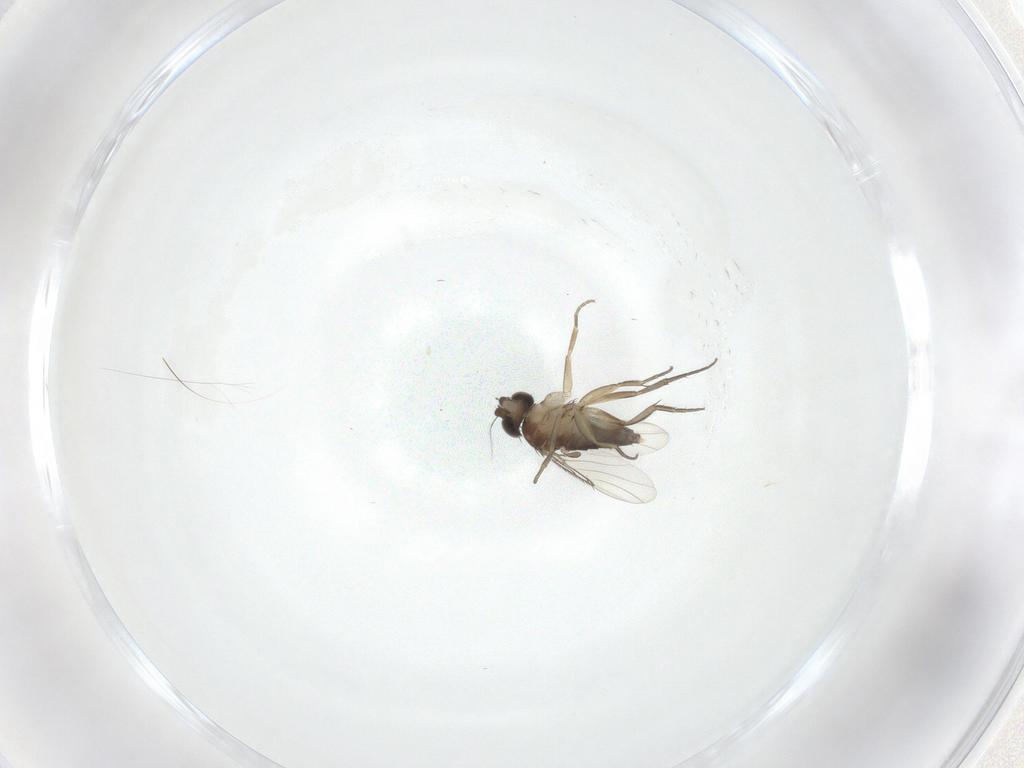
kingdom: Animalia
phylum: Arthropoda
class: Insecta
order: Diptera
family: Phoridae
